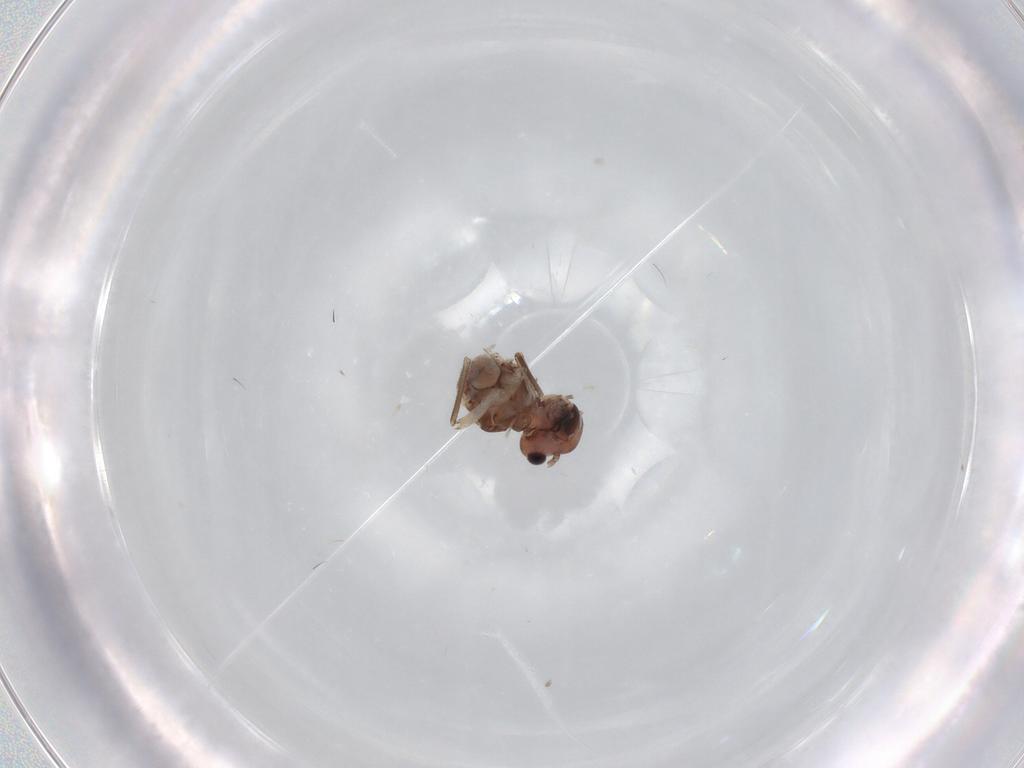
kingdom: Animalia
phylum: Arthropoda
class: Insecta
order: Psocodea
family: Peripsocidae
